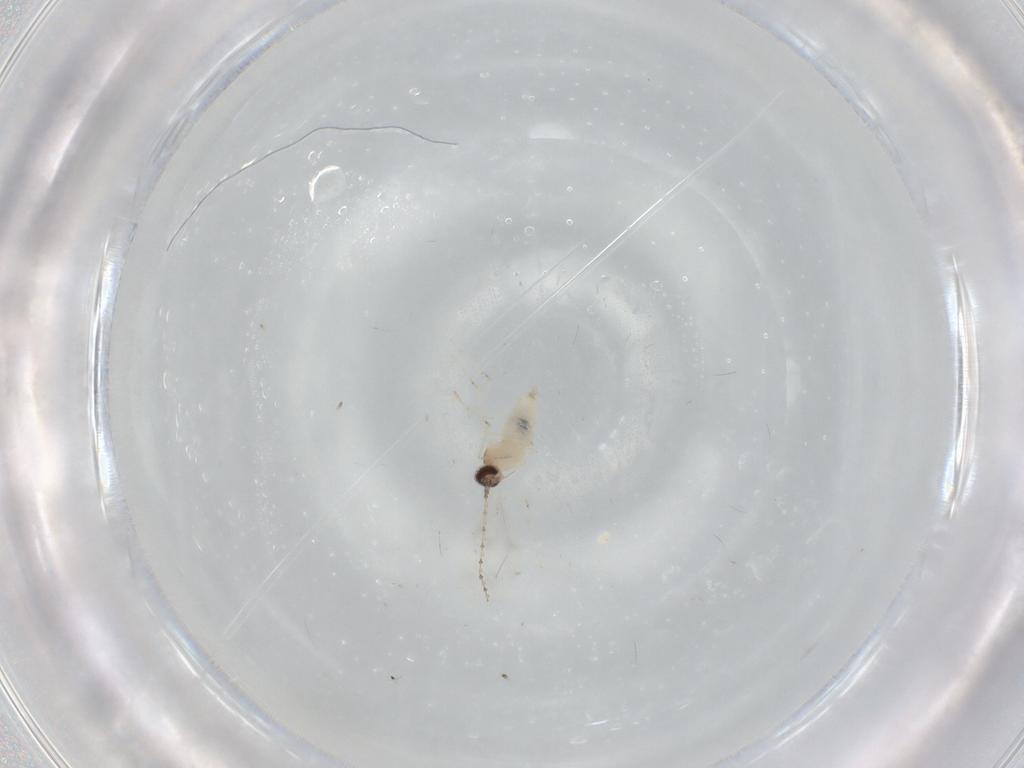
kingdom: Animalia
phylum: Arthropoda
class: Insecta
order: Diptera
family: Cecidomyiidae
